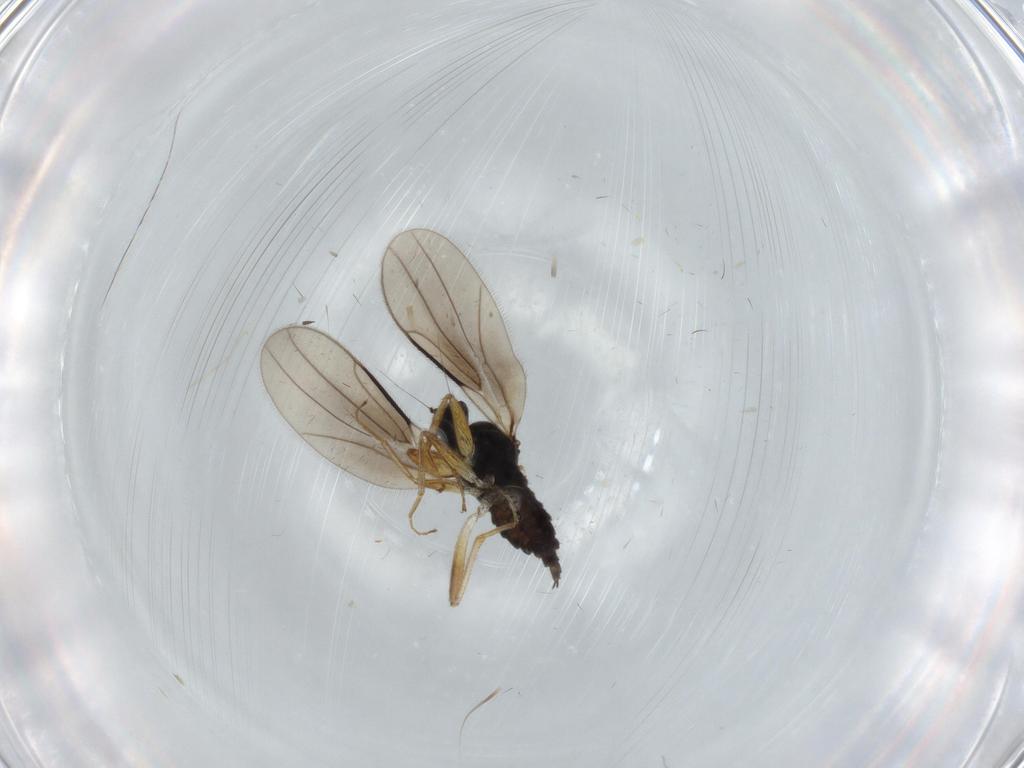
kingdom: Animalia
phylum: Arthropoda
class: Insecta
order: Diptera
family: Hybotidae
